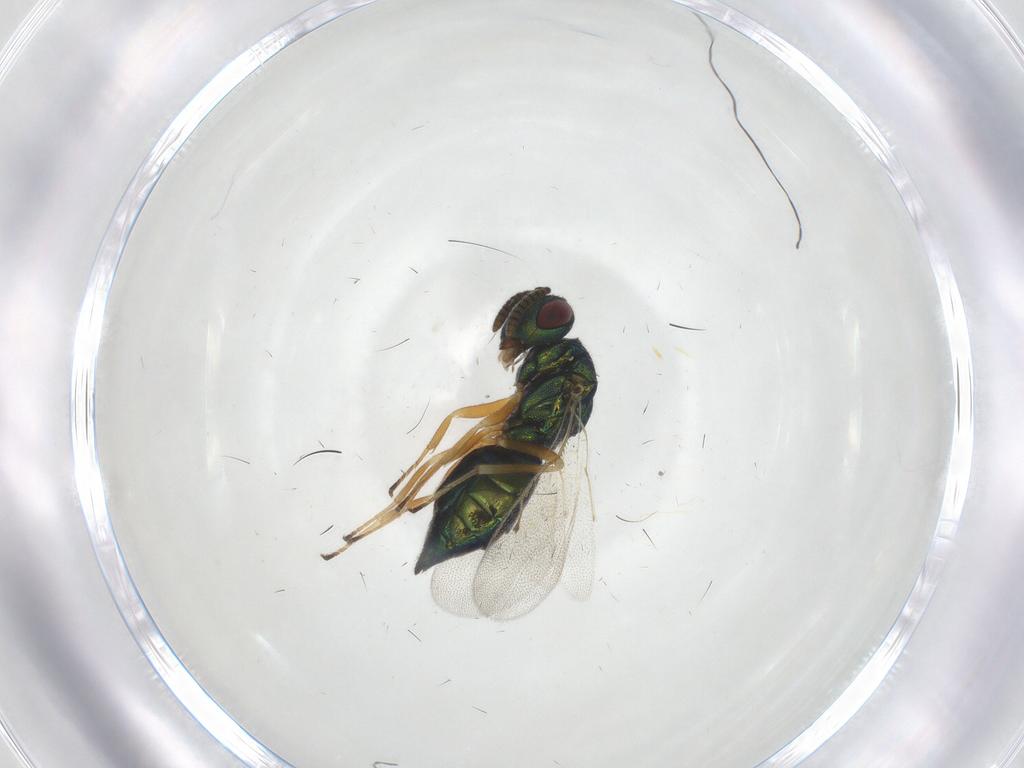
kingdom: Animalia
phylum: Arthropoda
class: Insecta
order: Hymenoptera
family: Pteromalidae
